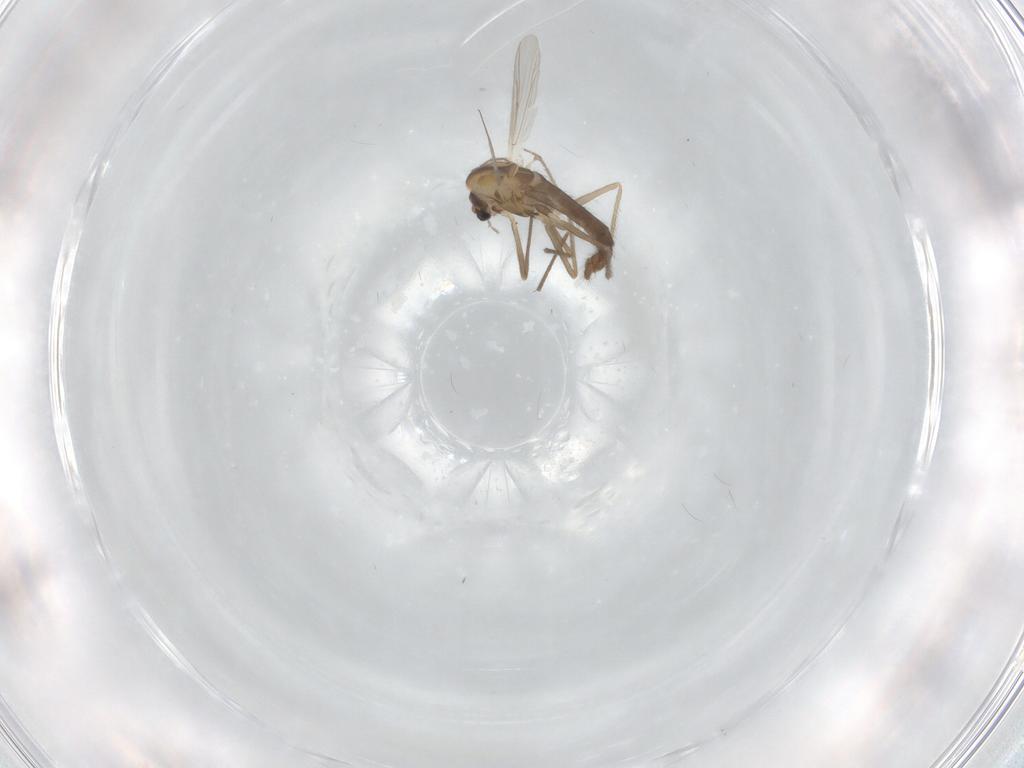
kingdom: Animalia
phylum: Arthropoda
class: Insecta
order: Diptera
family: Chironomidae
